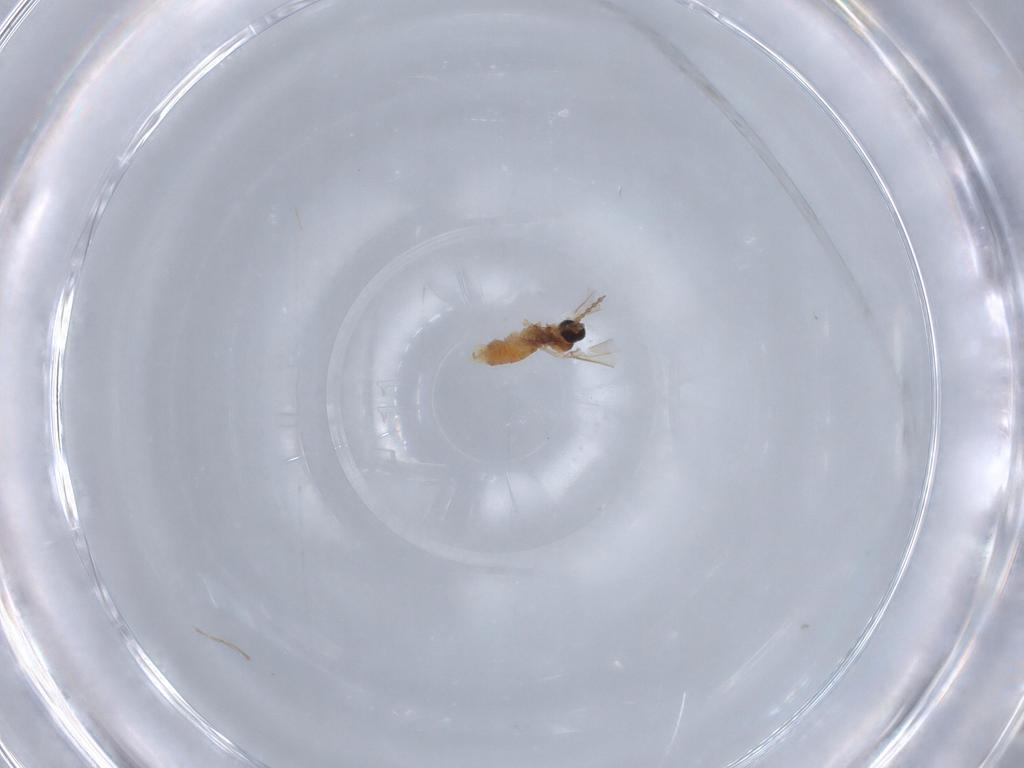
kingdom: Animalia
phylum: Arthropoda
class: Insecta
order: Diptera
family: Cecidomyiidae
